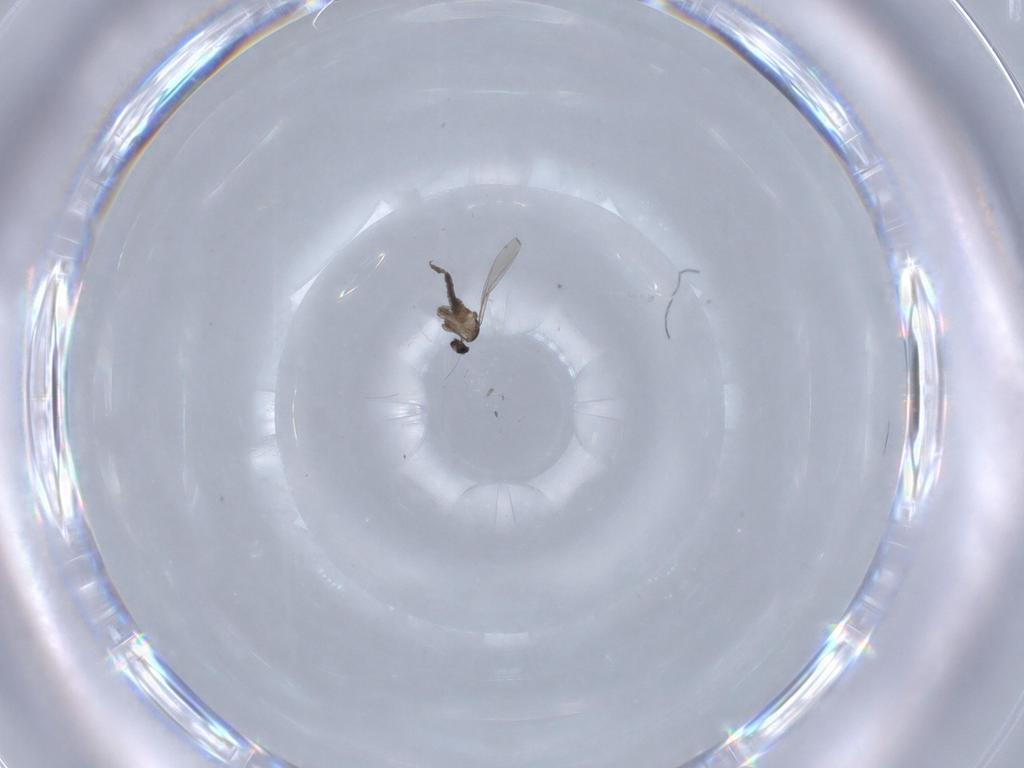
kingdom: Animalia
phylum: Arthropoda
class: Insecta
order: Diptera
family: Cecidomyiidae
